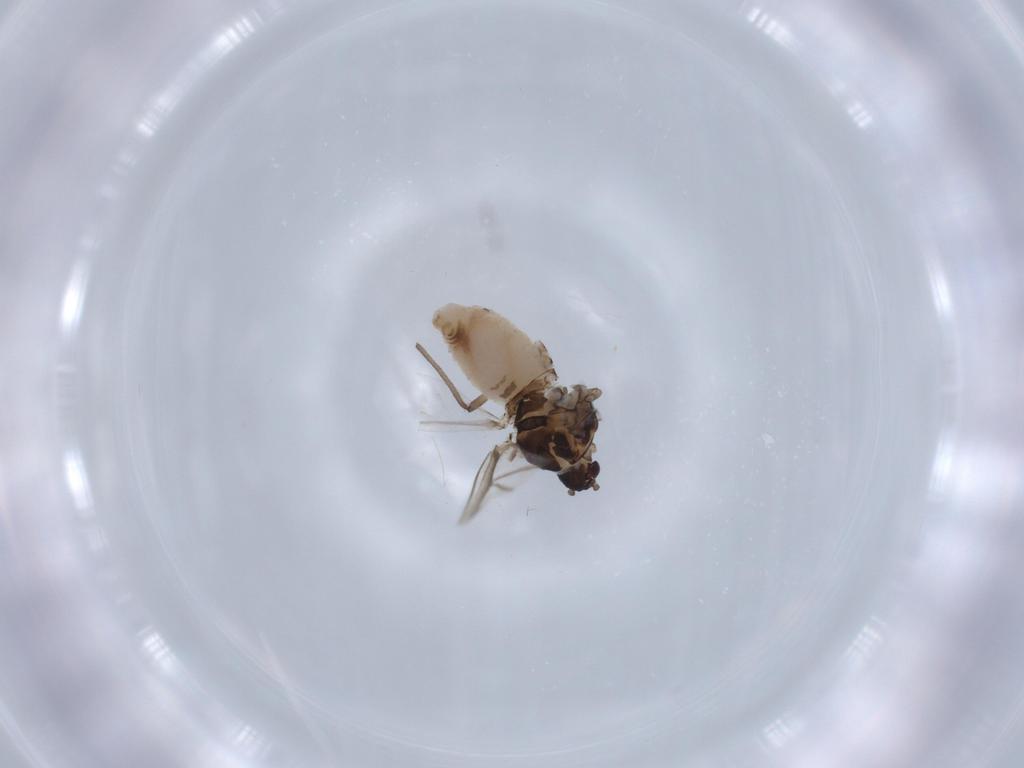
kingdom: Animalia
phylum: Arthropoda
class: Insecta
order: Hemiptera
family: Aphididae
